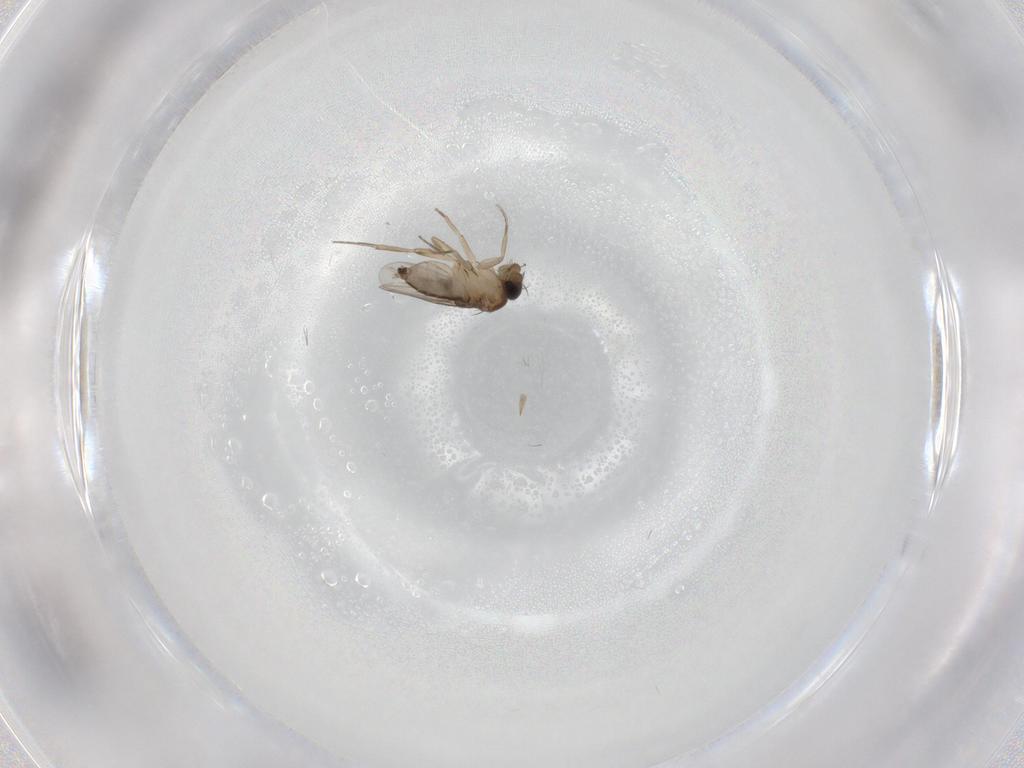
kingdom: Animalia
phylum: Arthropoda
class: Insecta
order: Diptera
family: Phoridae
